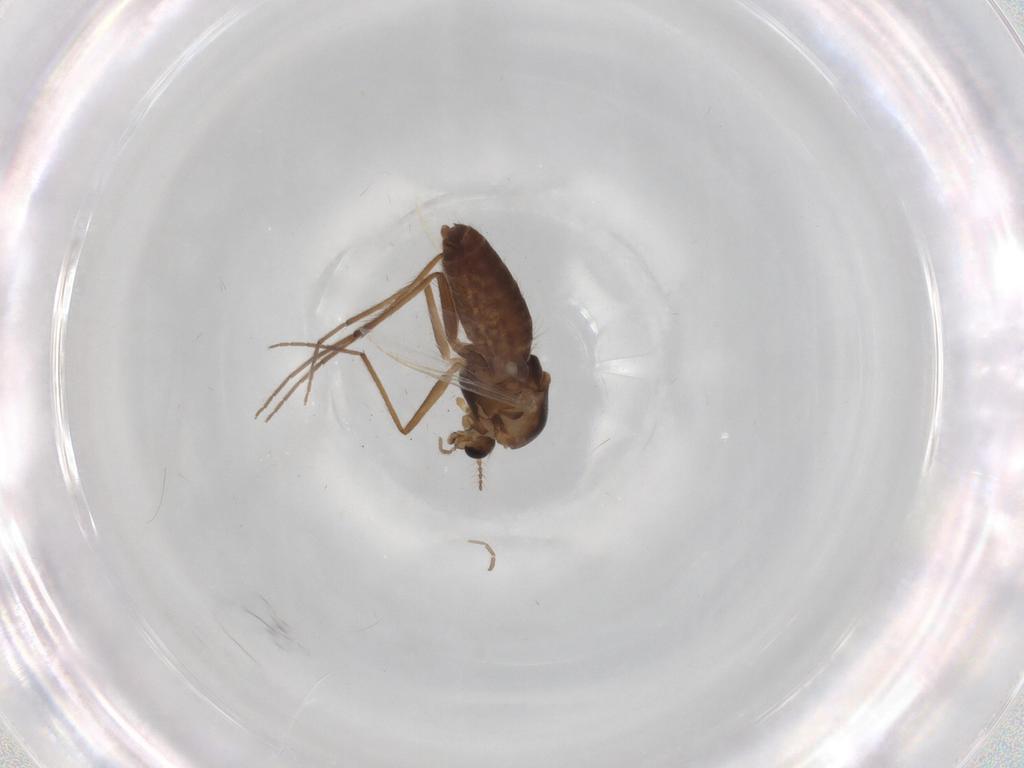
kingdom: Animalia
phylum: Arthropoda
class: Insecta
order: Diptera
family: Chironomidae
